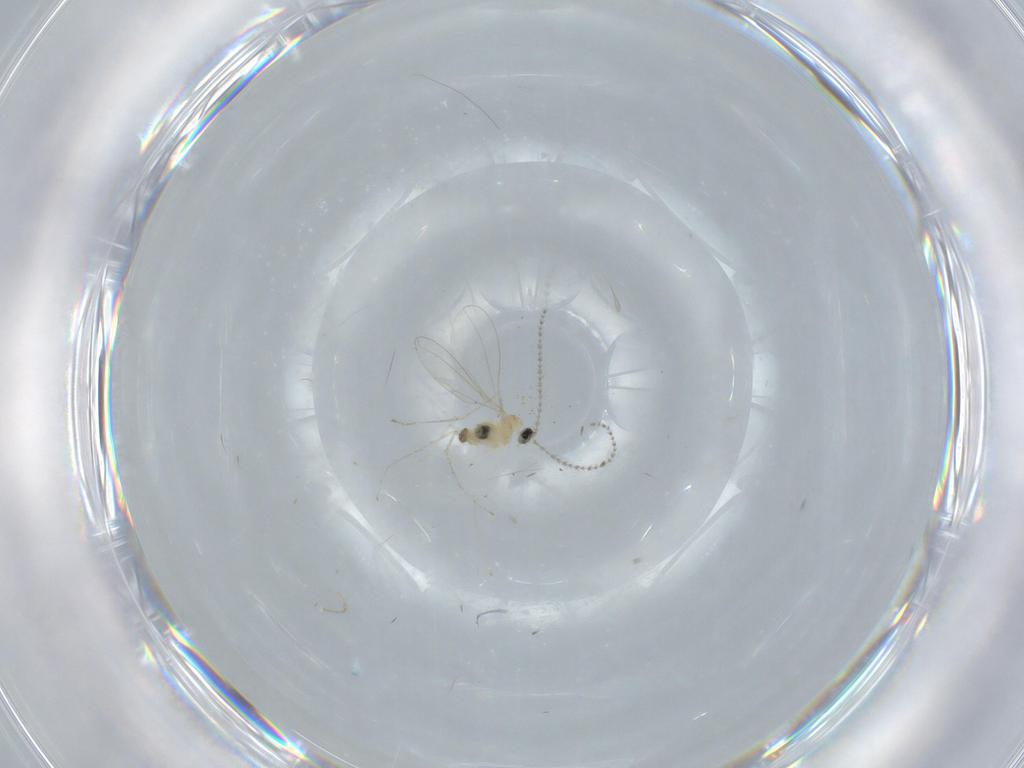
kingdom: Animalia
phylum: Arthropoda
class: Insecta
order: Diptera
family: Cecidomyiidae
